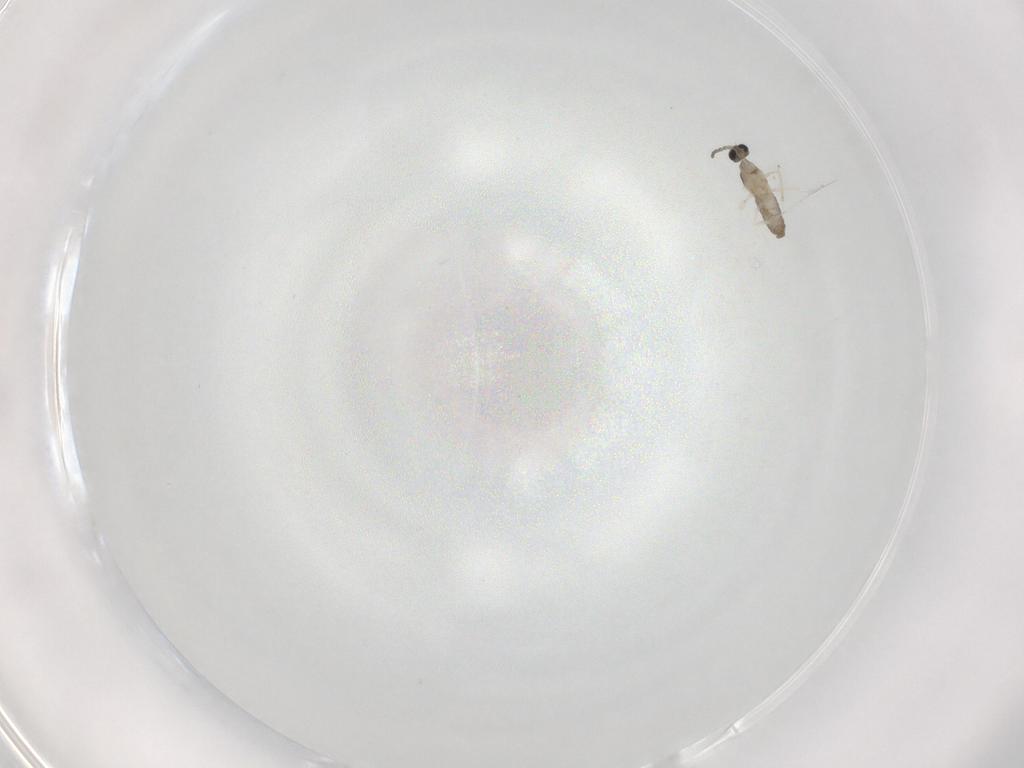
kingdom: Animalia
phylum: Arthropoda
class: Insecta
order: Diptera
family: Cecidomyiidae
